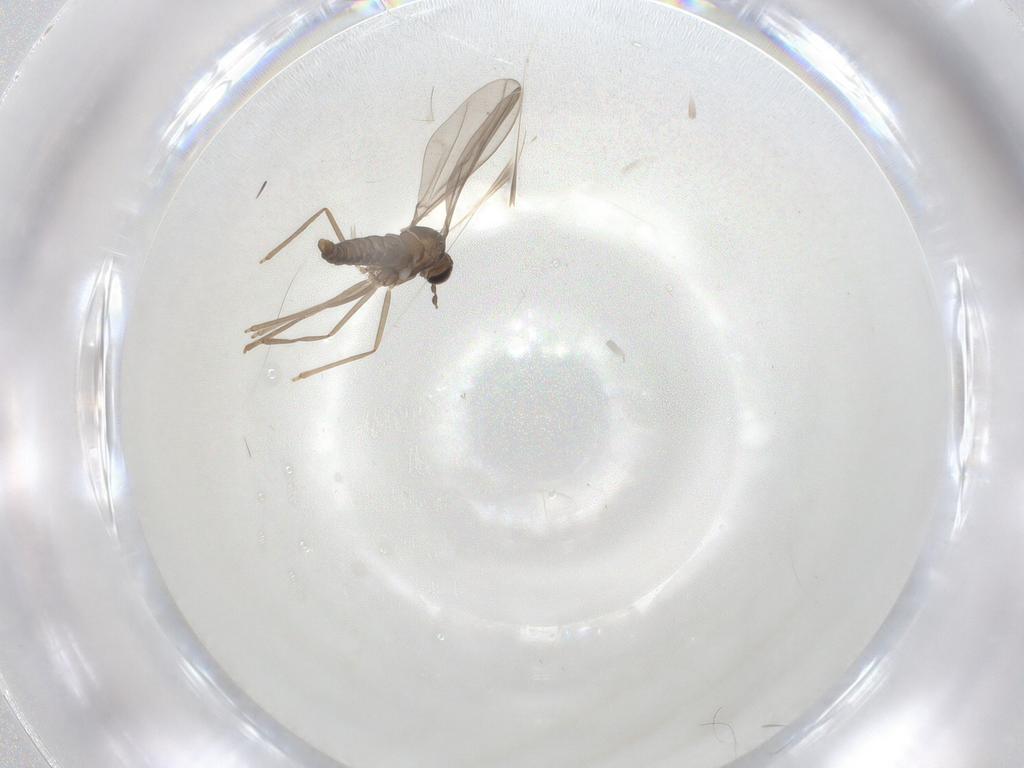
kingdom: Animalia
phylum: Arthropoda
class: Insecta
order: Diptera
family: Cecidomyiidae
